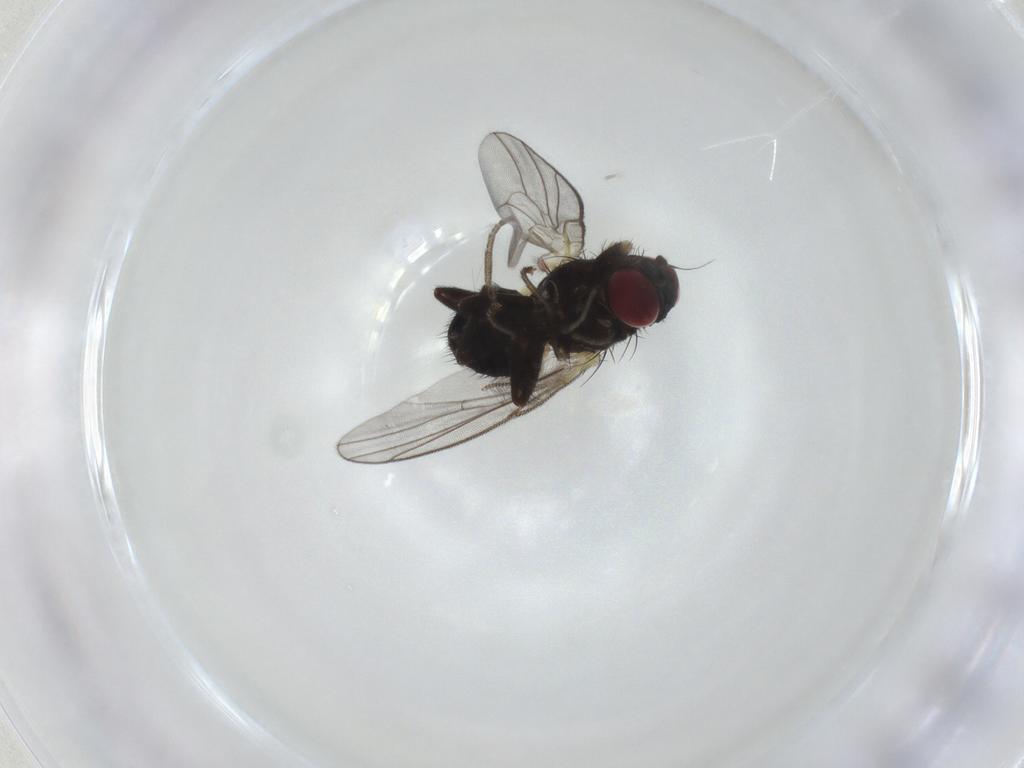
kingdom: Animalia
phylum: Arthropoda
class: Insecta
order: Diptera
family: Agromyzidae
